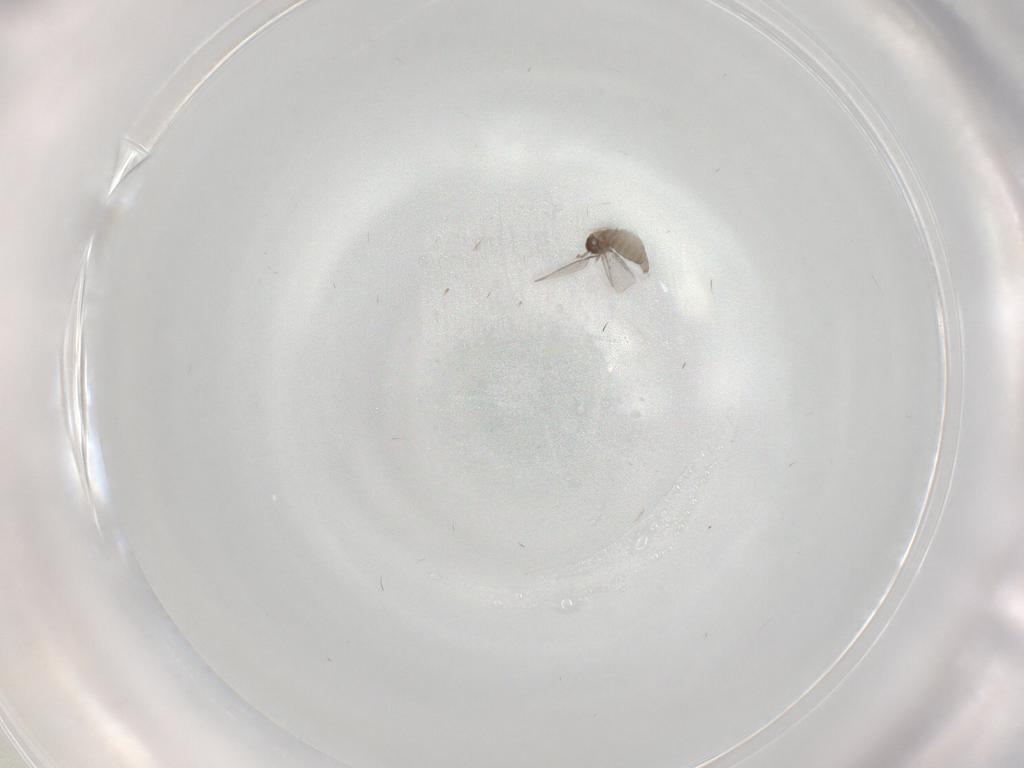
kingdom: Animalia
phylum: Arthropoda
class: Insecta
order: Diptera
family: Cecidomyiidae
